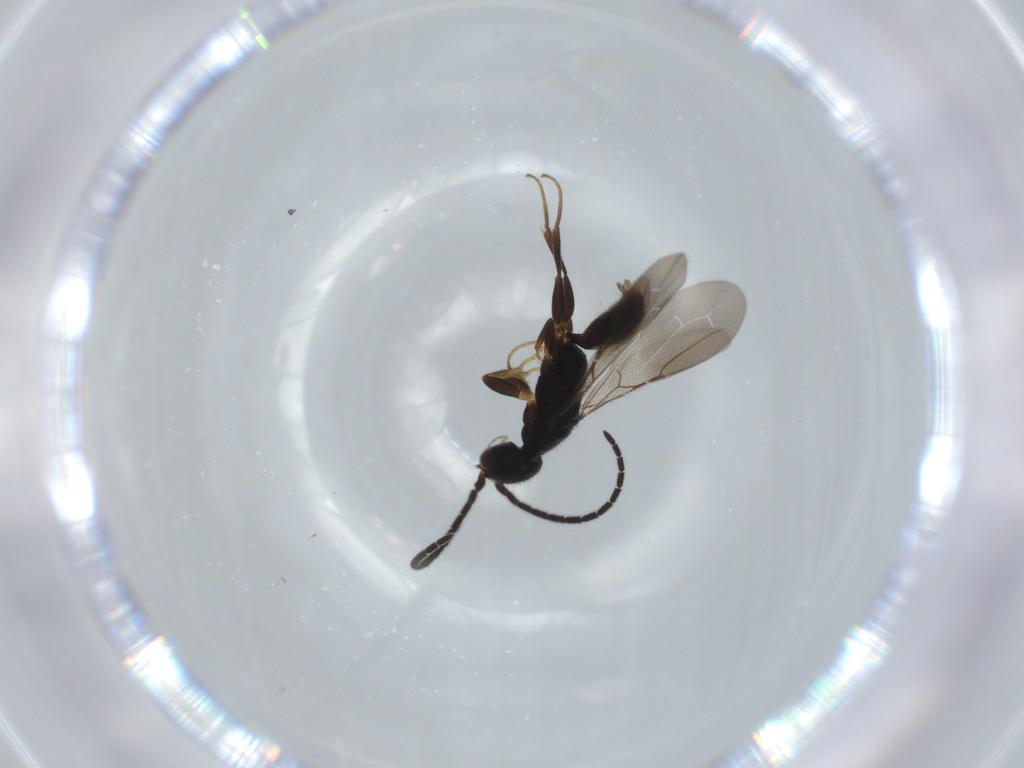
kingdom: Animalia
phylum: Arthropoda
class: Insecta
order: Hymenoptera
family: Bethylidae
